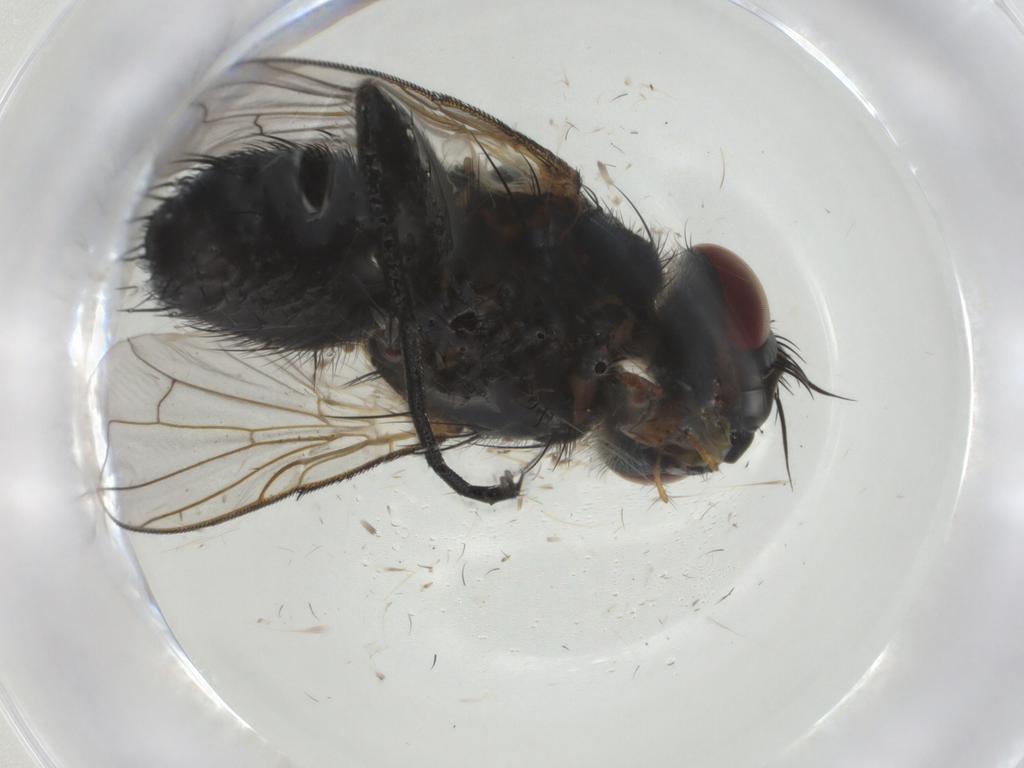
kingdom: Animalia
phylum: Arthropoda
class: Insecta
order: Diptera
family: Tachinidae
